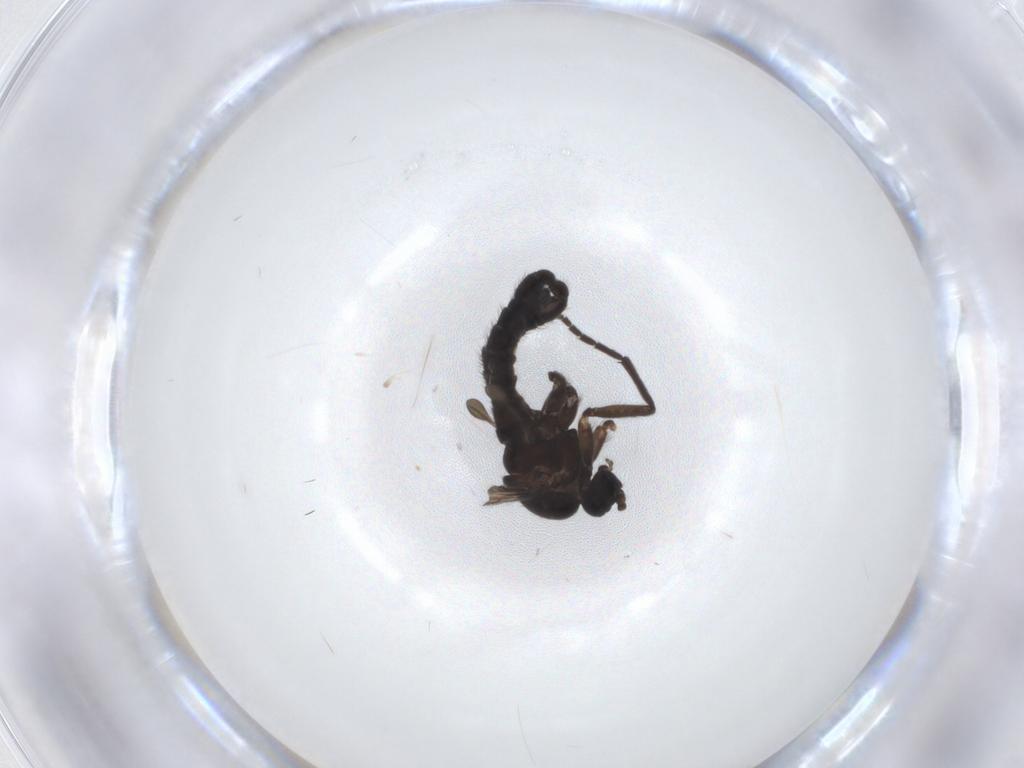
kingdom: Animalia
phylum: Arthropoda
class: Insecta
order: Diptera
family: Sciaridae
